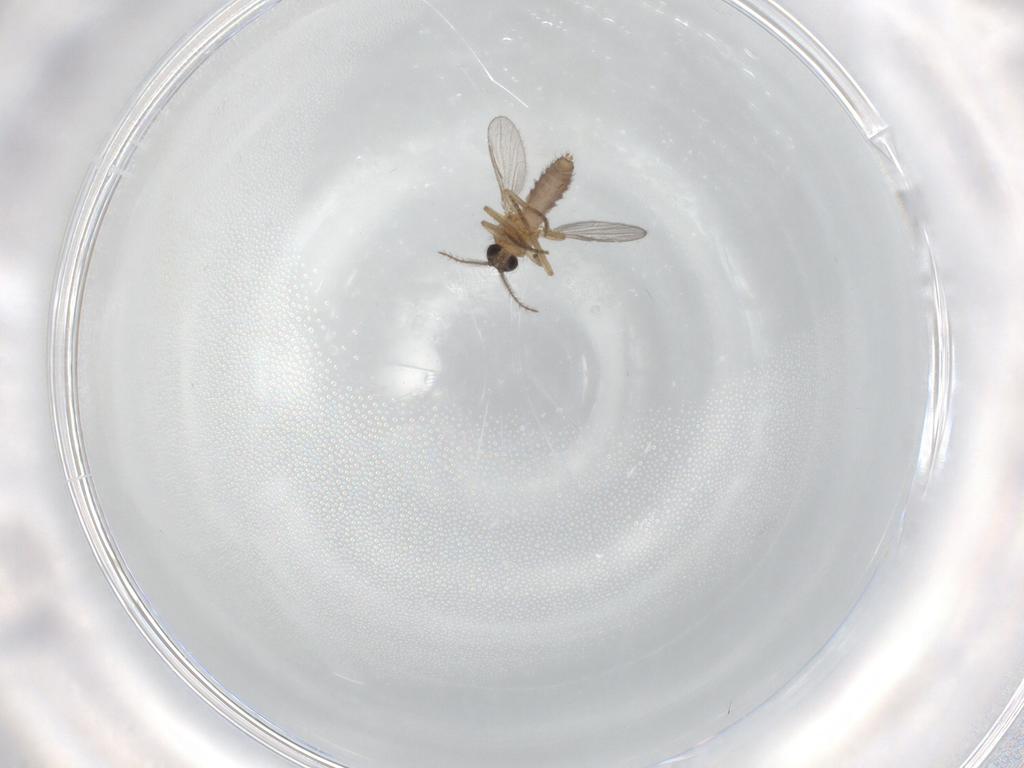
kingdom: Animalia
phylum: Arthropoda
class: Insecta
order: Diptera
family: Ceratopogonidae
